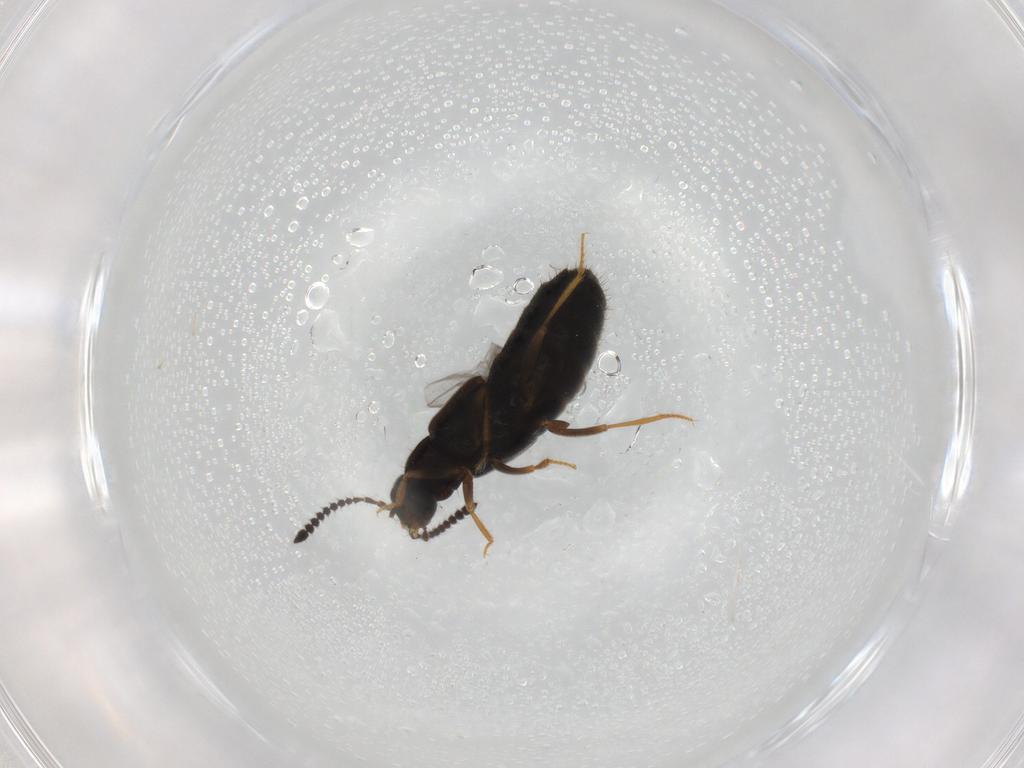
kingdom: Animalia
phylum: Arthropoda
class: Insecta
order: Coleoptera
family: Staphylinidae
